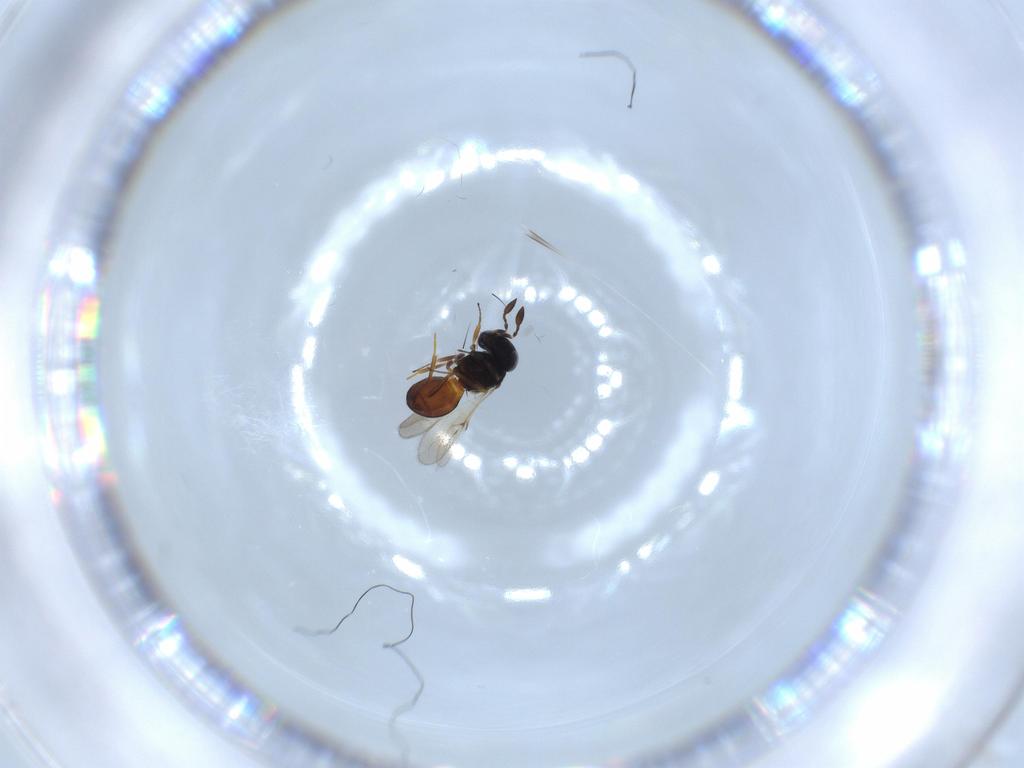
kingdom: Animalia
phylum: Arthropoda
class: Insecta
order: Hymenoptera
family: Scelionidae
